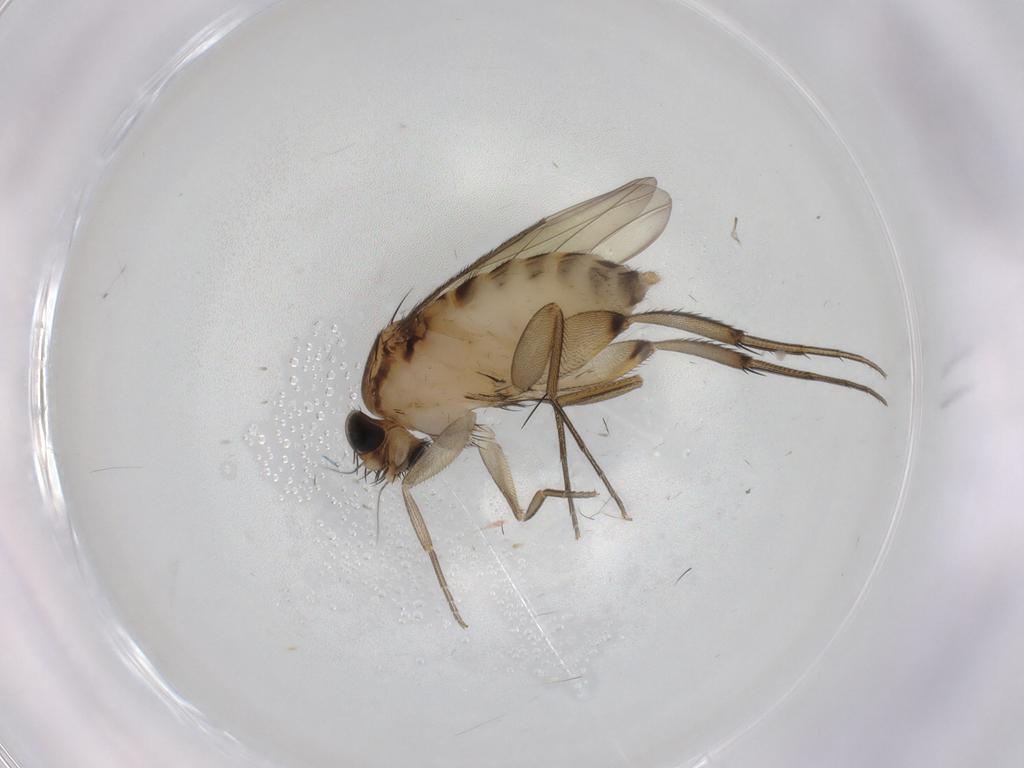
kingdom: Animalia
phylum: Arthropoda
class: Insecta
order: Diptera
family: Phoridae
